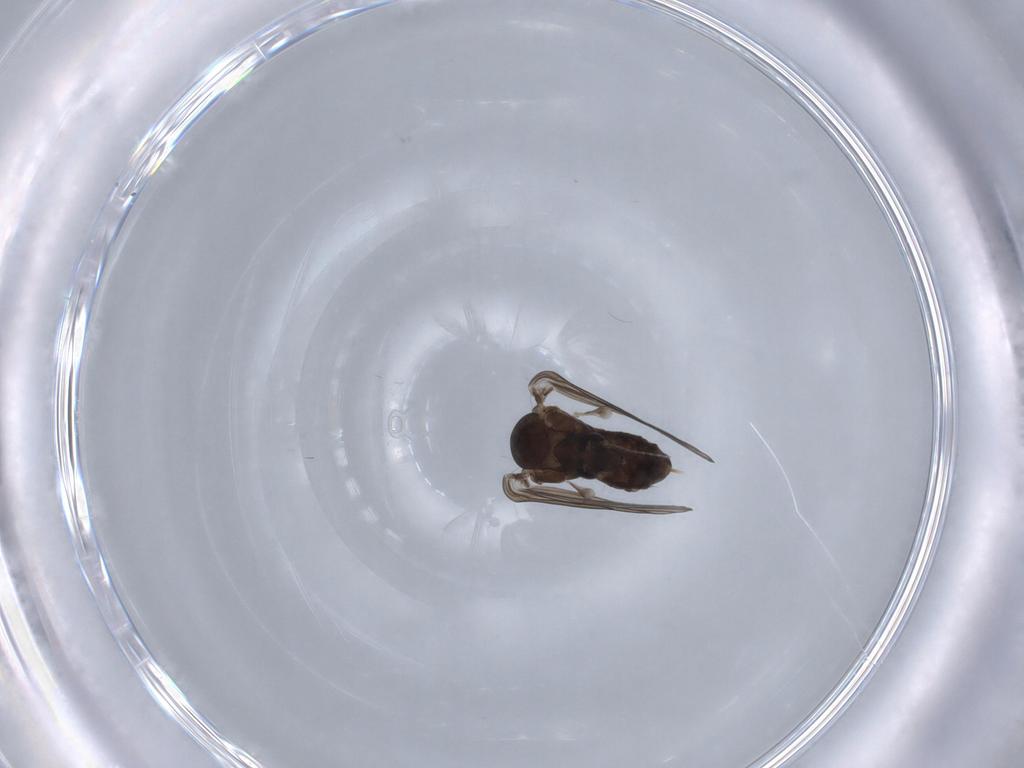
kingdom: Animalia
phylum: Arthropoda
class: Insecta
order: Diptera
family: Psychodidae
